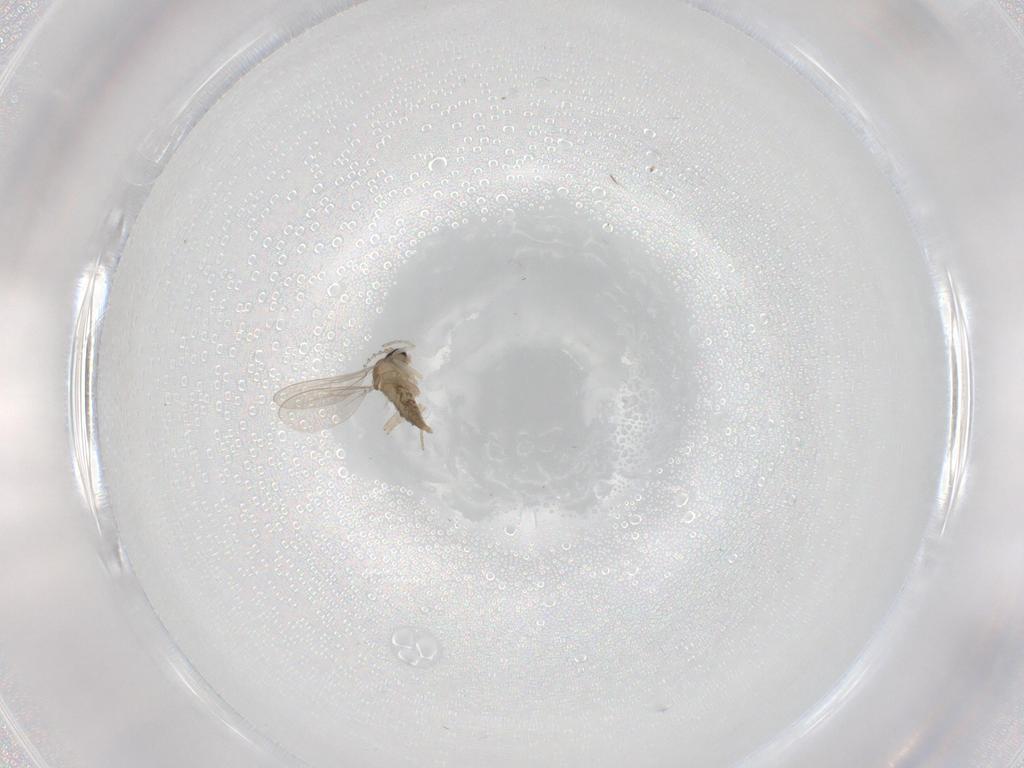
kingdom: Animalia
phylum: Arthropoda
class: Insecta
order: Diptera
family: Cecidomyiidae
